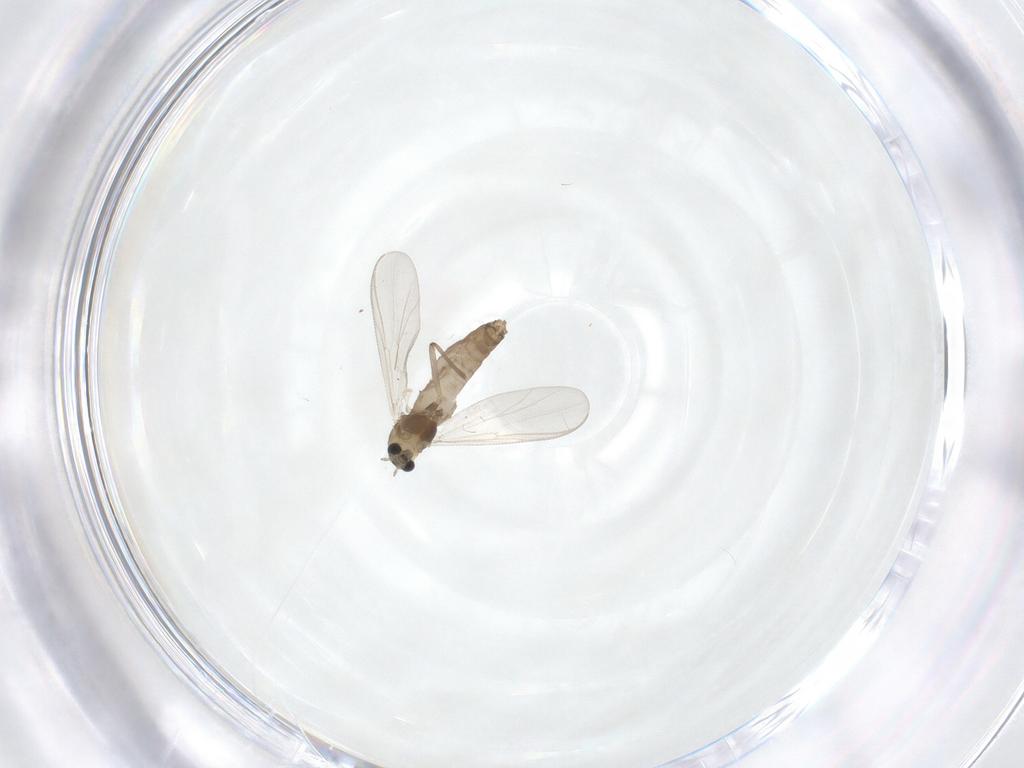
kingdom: Animalia
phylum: Arthropoda
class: Insecta
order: Diptera
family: Chironomidae
